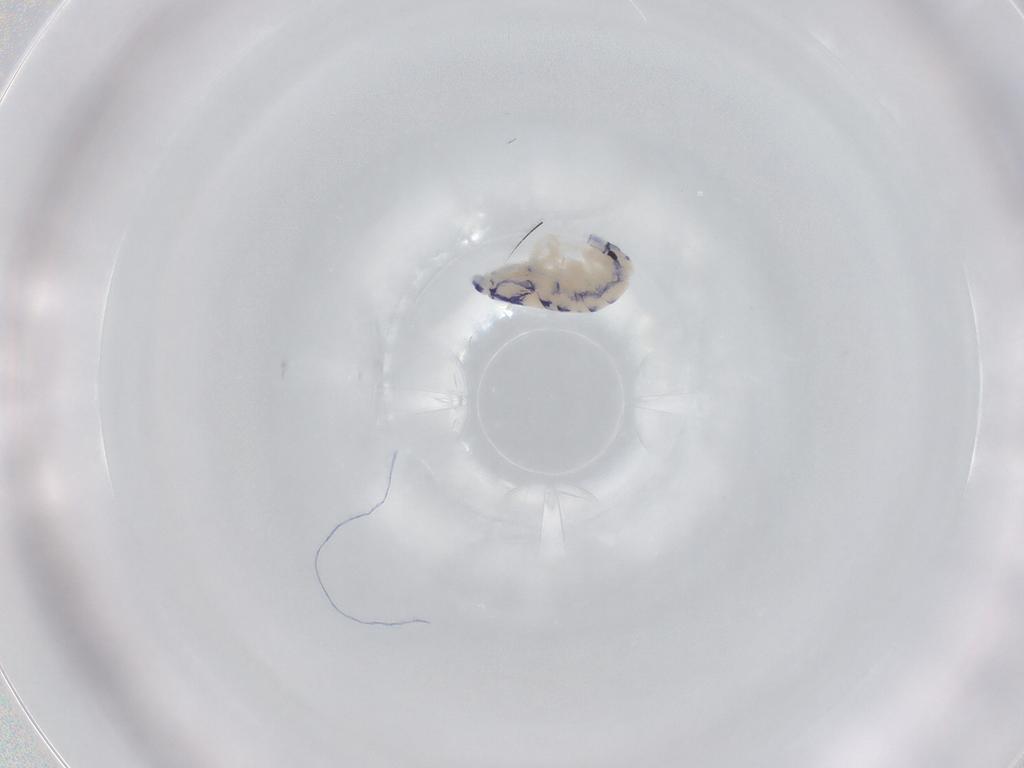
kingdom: Animalia
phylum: Arthropoda
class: Collembola
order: Entomobryomorpha
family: Entomobryidae
